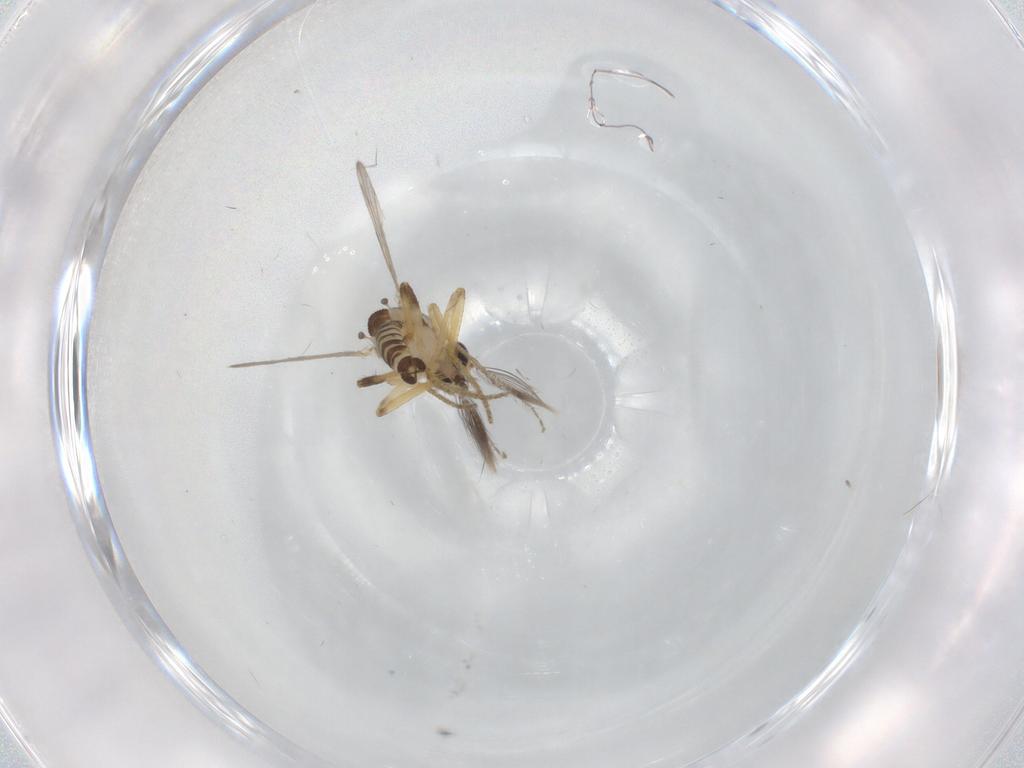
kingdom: Animalia
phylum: Arthropoda
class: Insecta
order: Diptera
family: Ceratopogonidae
